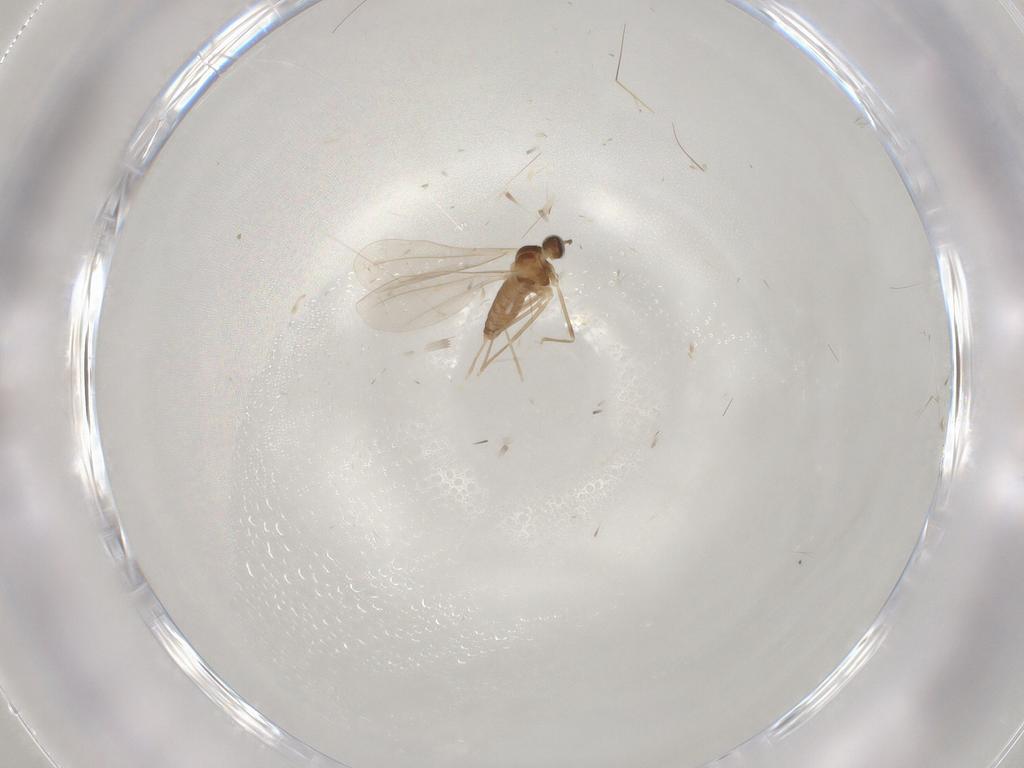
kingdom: Animalia
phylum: Arthropoda
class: Insecta
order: Diptera
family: Cecidomyiidae
